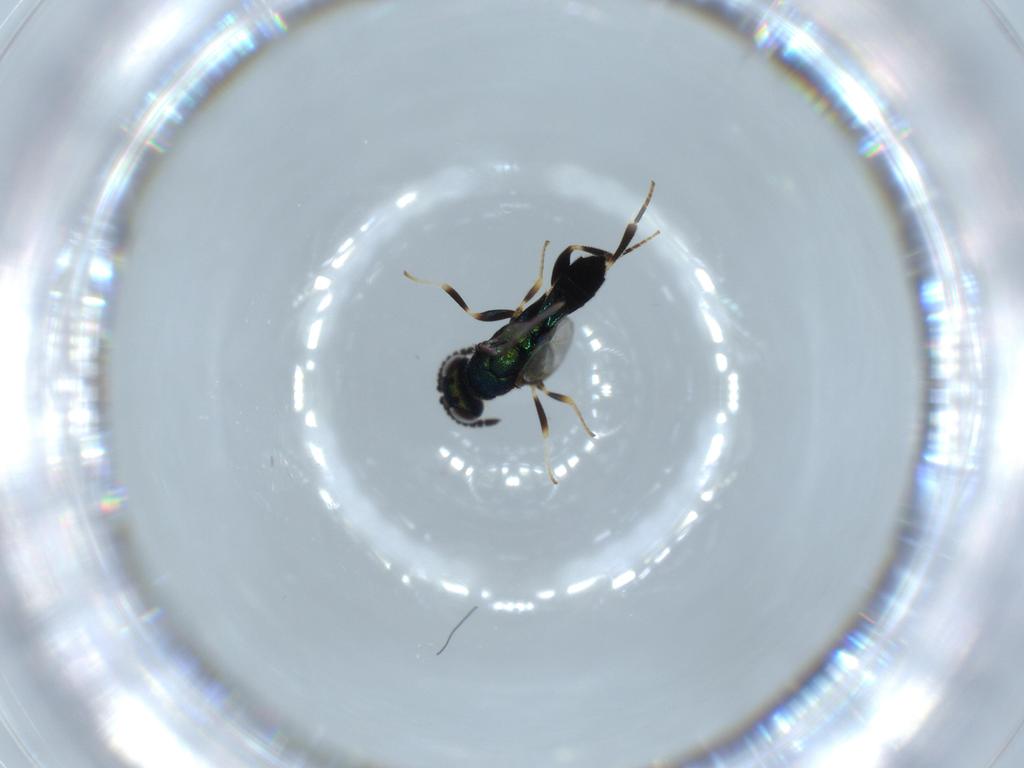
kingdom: Animalia
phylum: Arthropoda
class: Insecta
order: Hymenoptera
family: Cleonyminae
